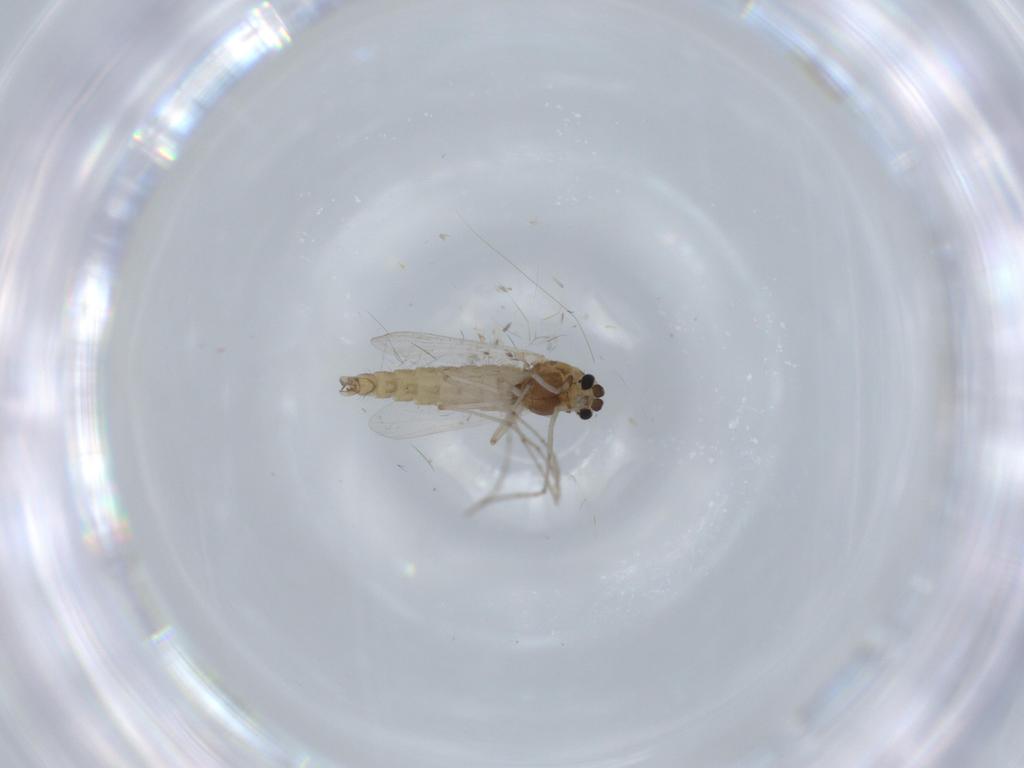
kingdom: Animalia
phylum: Arthropoda
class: Insecta
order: Diptera
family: Chironomidae
